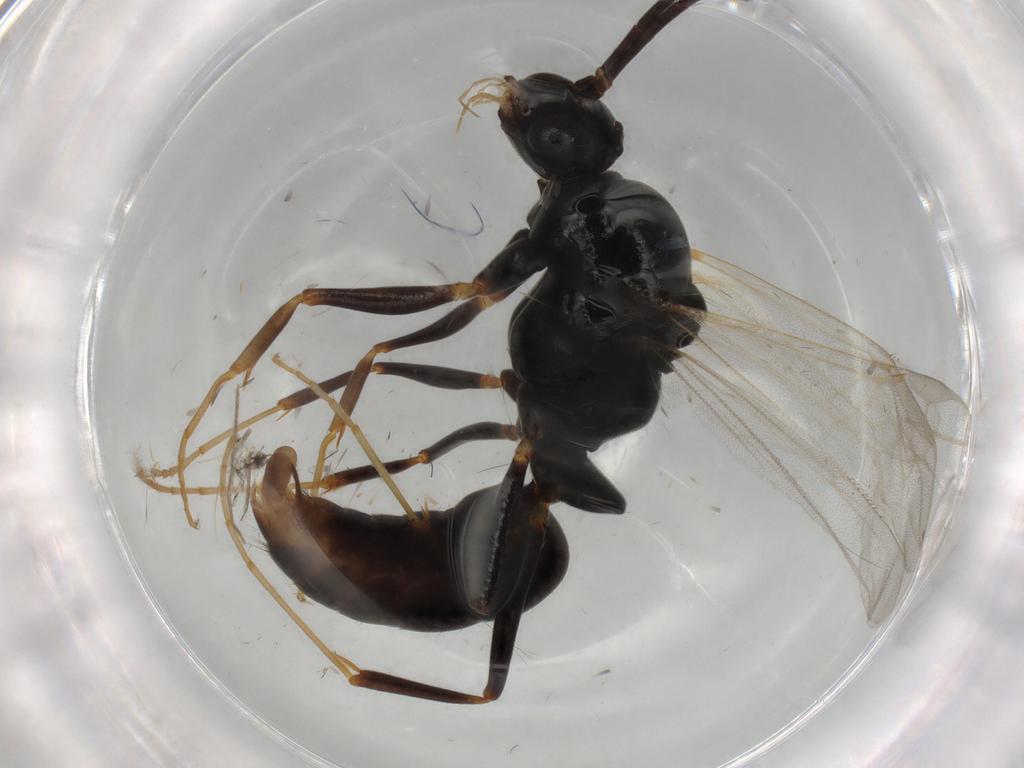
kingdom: Animalia
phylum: Arthropoda
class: Insecta
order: Hymenoptera
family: Formicidae
